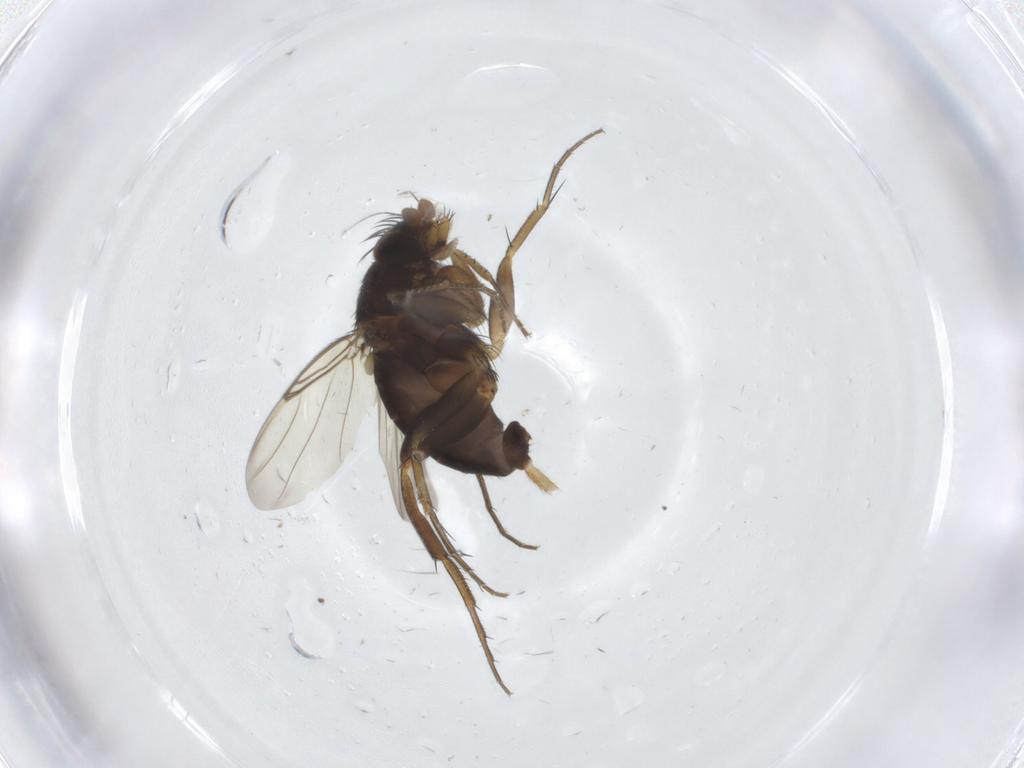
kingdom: Animalia
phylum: Arthropoda
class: Insecta
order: Diptera
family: Phoridae
